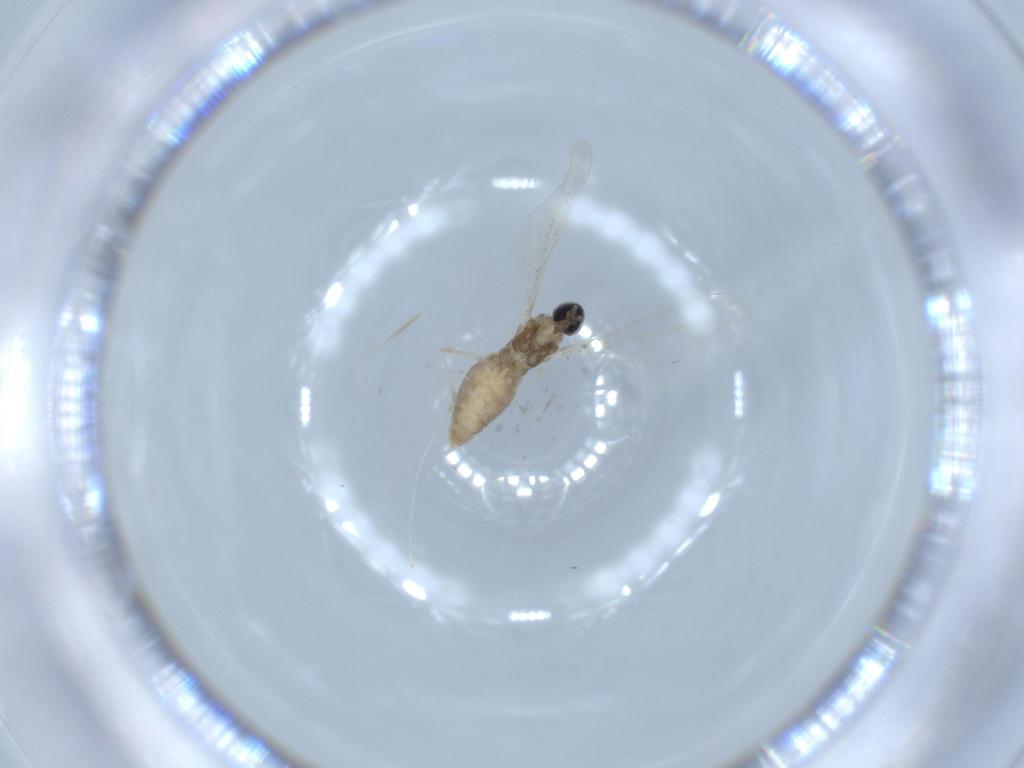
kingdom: Animalia
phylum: Arthropoda
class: Insecta
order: Diptera
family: Cecidomyiidae
